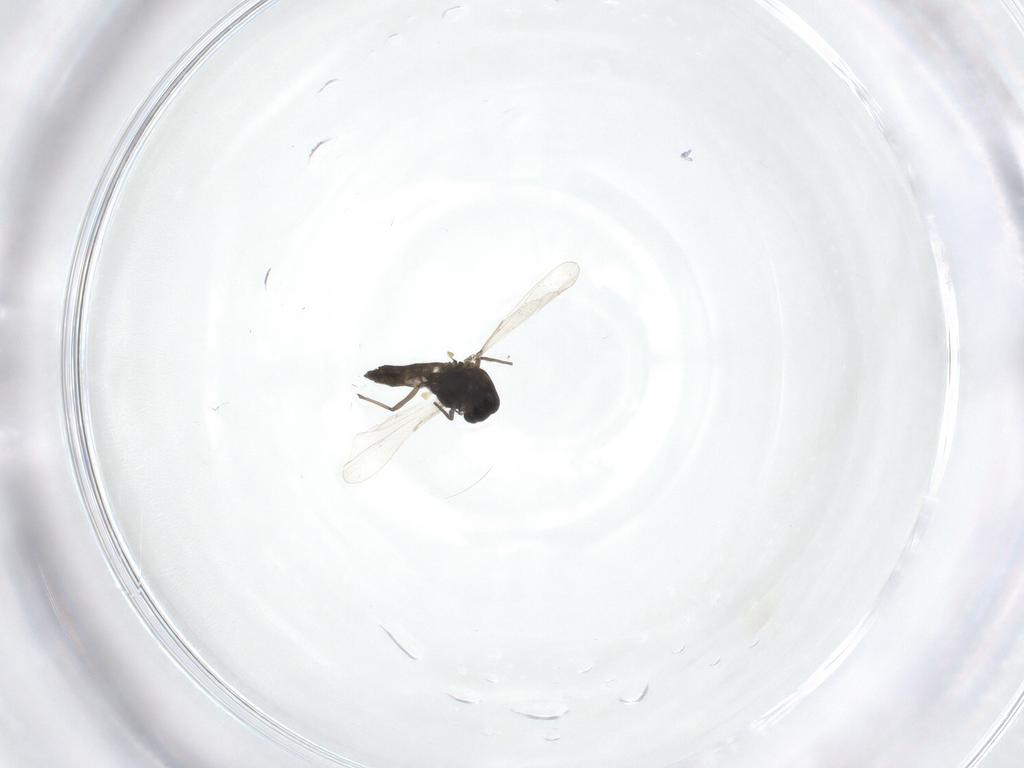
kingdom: Animalia
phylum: Arthropoda
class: Insecta
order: Diptera
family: Chironomidae
